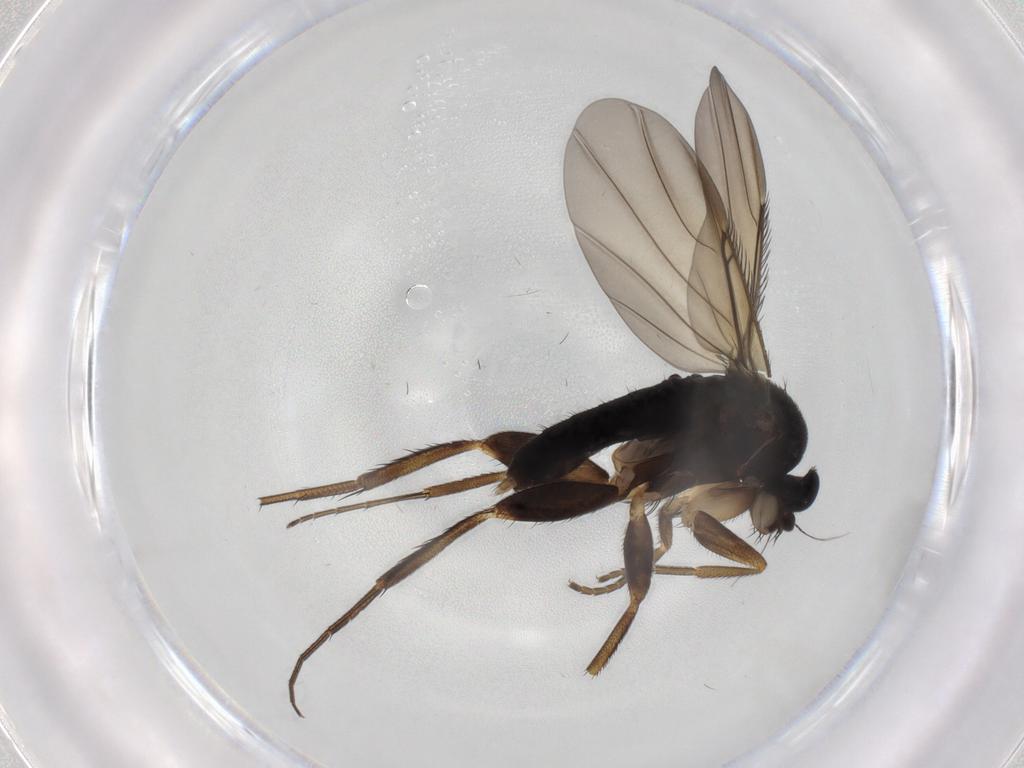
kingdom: Animalia
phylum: Arthropoda
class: Insecta
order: Diptera
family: Phoridae
